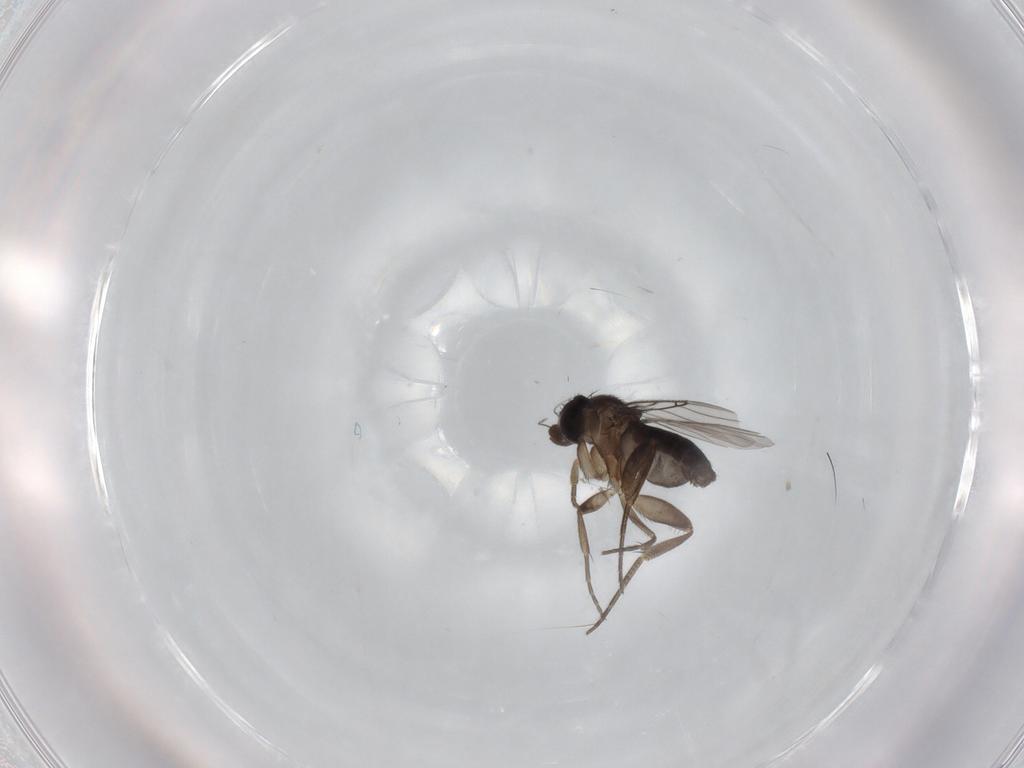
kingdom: Animalia
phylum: Arthropoda
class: Insecta
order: Diptera
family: Phoridae
